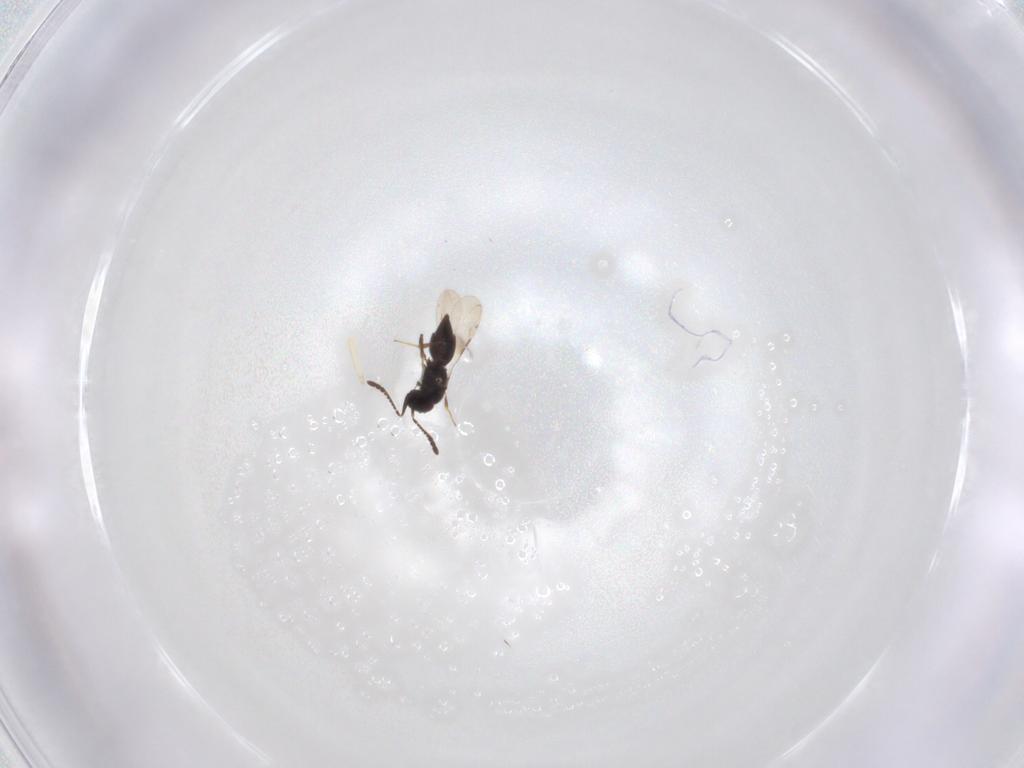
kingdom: Animalia
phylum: Arthropoda
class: Insecta
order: Hymenoptera
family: Ceraphronidae
